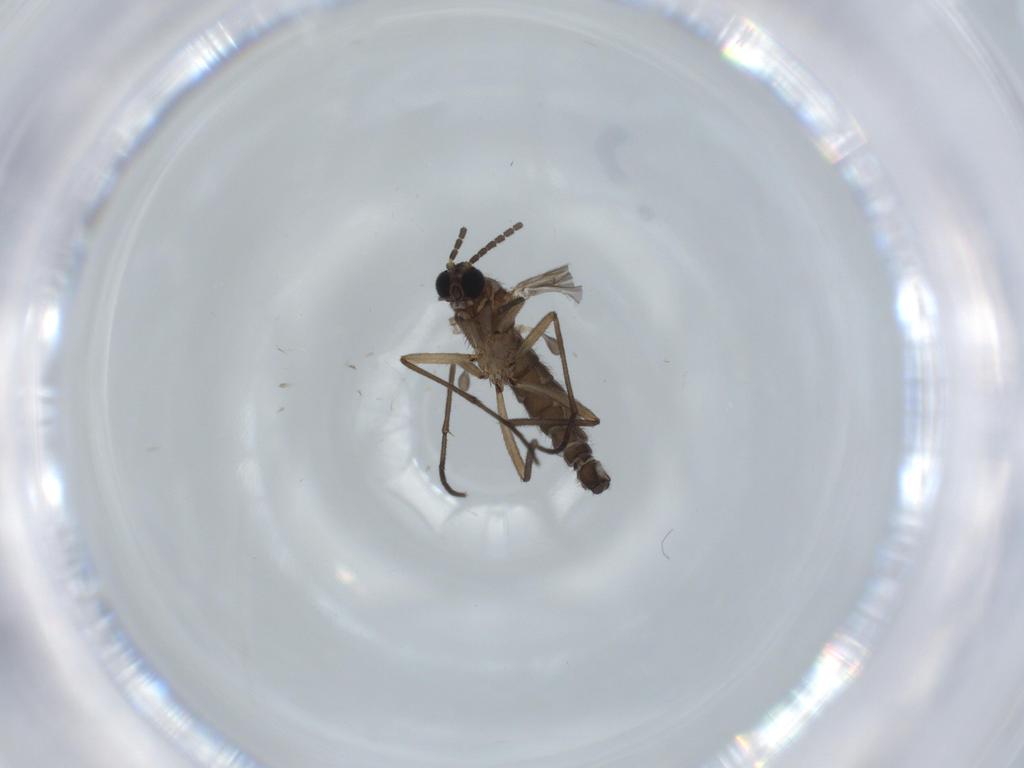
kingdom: Animalia
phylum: Arthropoda
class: Insecta
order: Diptera
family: Sciaridae
